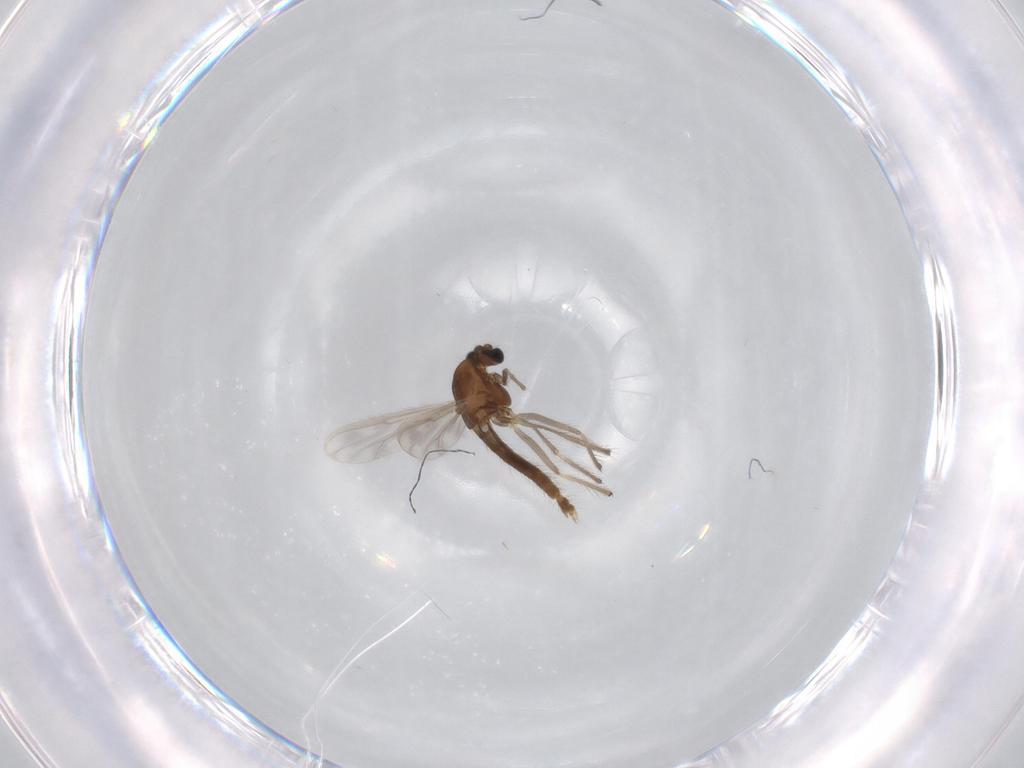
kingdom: Animalia
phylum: Arthropoda
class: Insecta
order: Diptera
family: Chironomidae
